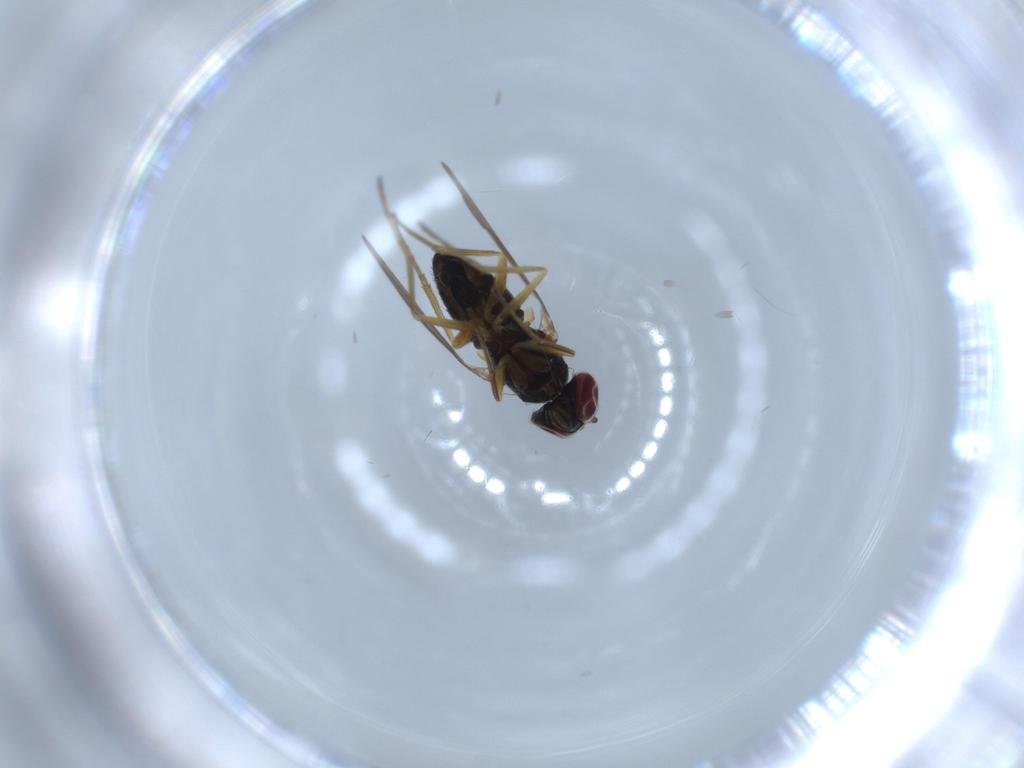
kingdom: Animalia
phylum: Arthropoda
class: Insecta
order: Diptera
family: Dolichopodidae
